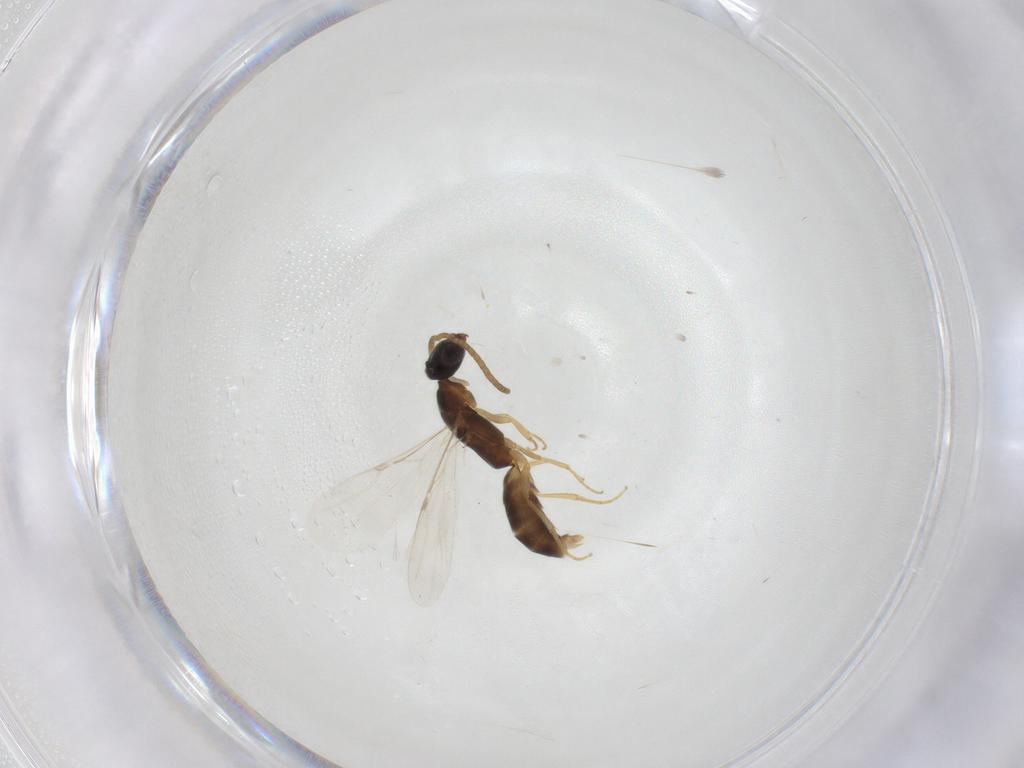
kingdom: Animalia
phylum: Arthropoda
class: Insecta
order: Hymenoptera
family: Bethylidae
